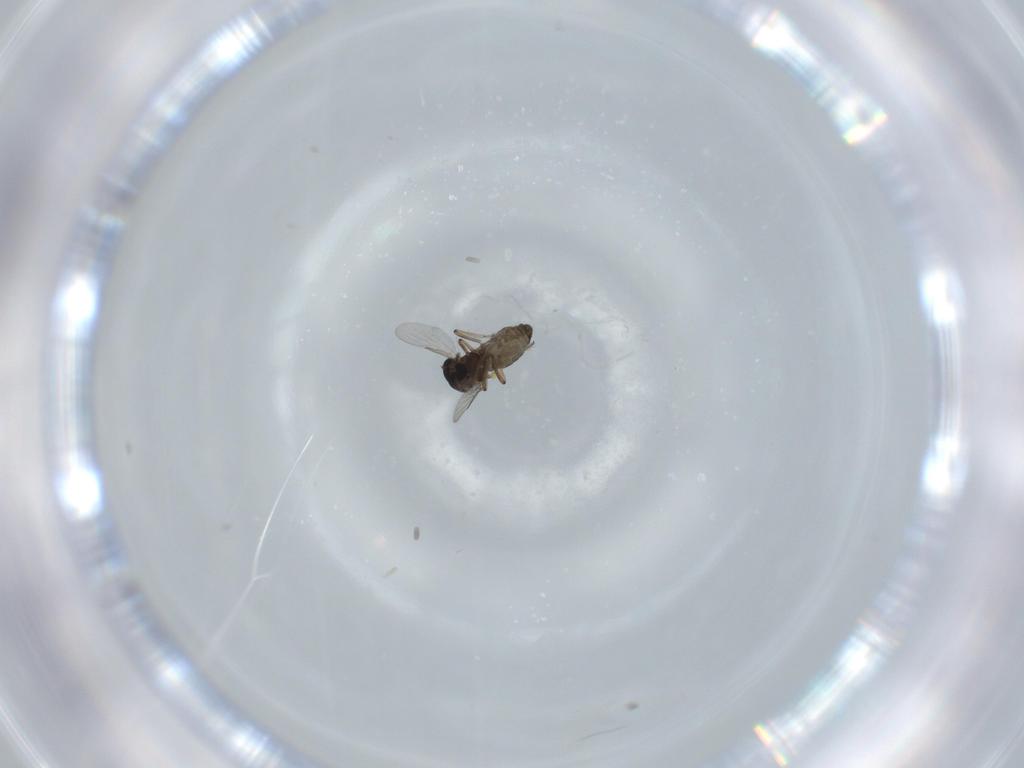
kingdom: Animalia
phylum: Arthropoda
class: Insecta
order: Diptera
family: Ceratopogonidae
